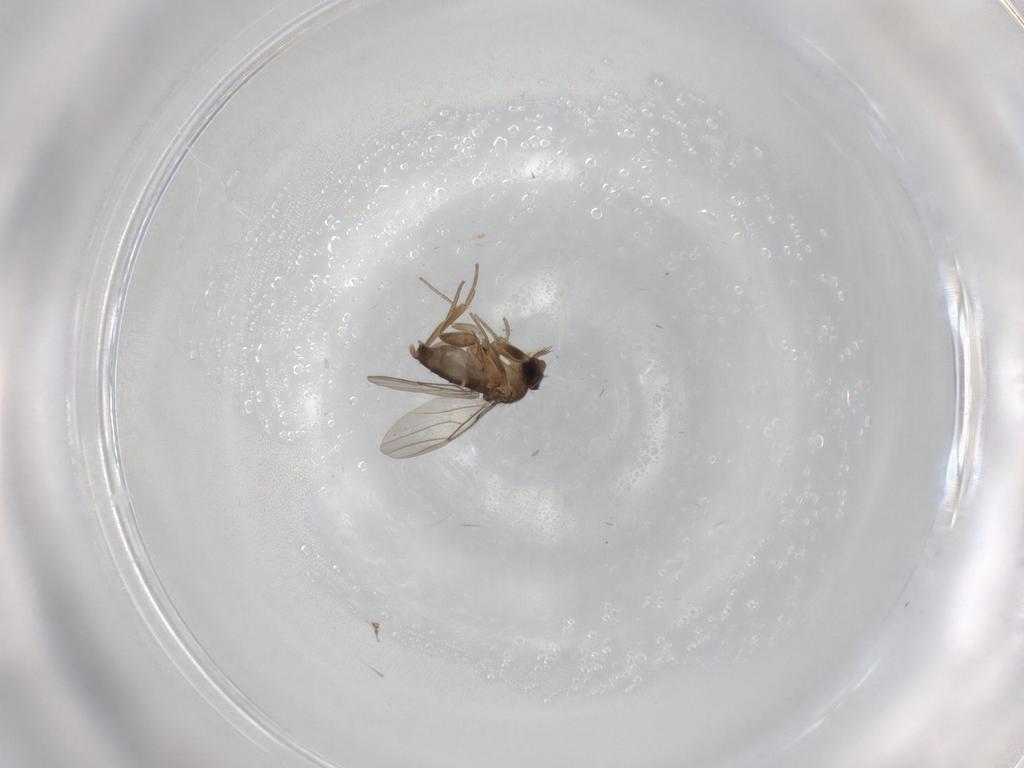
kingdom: Animalia
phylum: Arthropoda
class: Insecta
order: Diptera
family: Phoridae
